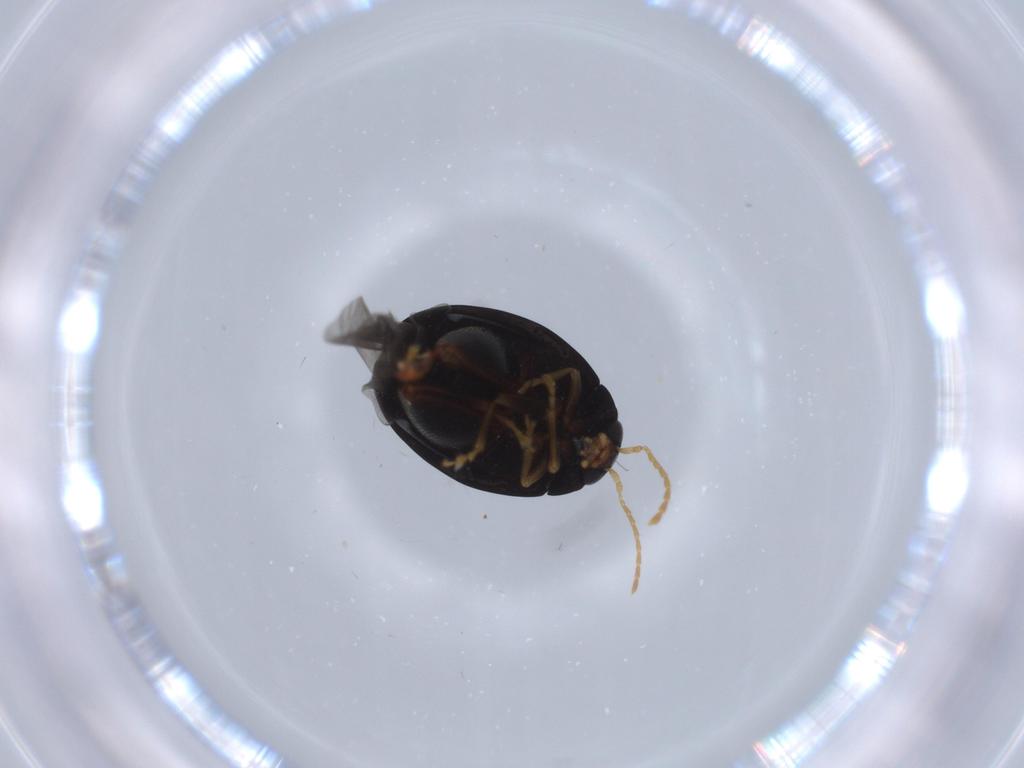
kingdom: Animalia
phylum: Arthropoda
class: Insecta
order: Coleoptera
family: Chrysomelidae
